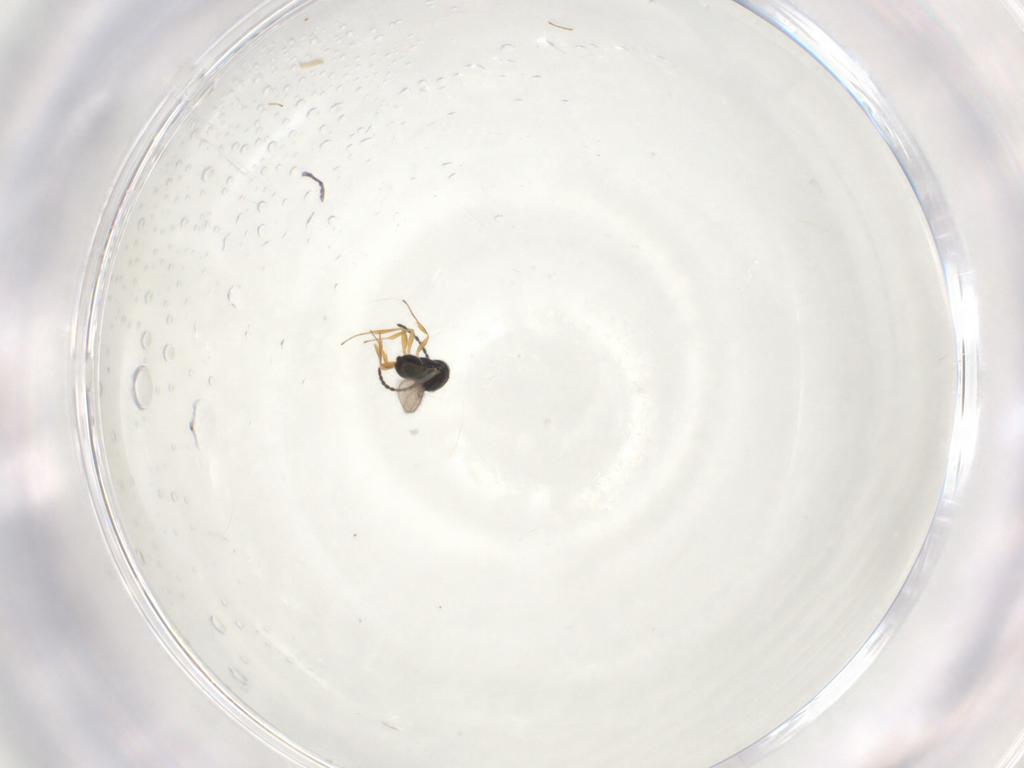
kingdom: Animalia
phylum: Arthropoda
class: Insecta
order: Hymenoptera
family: Scelionidae
